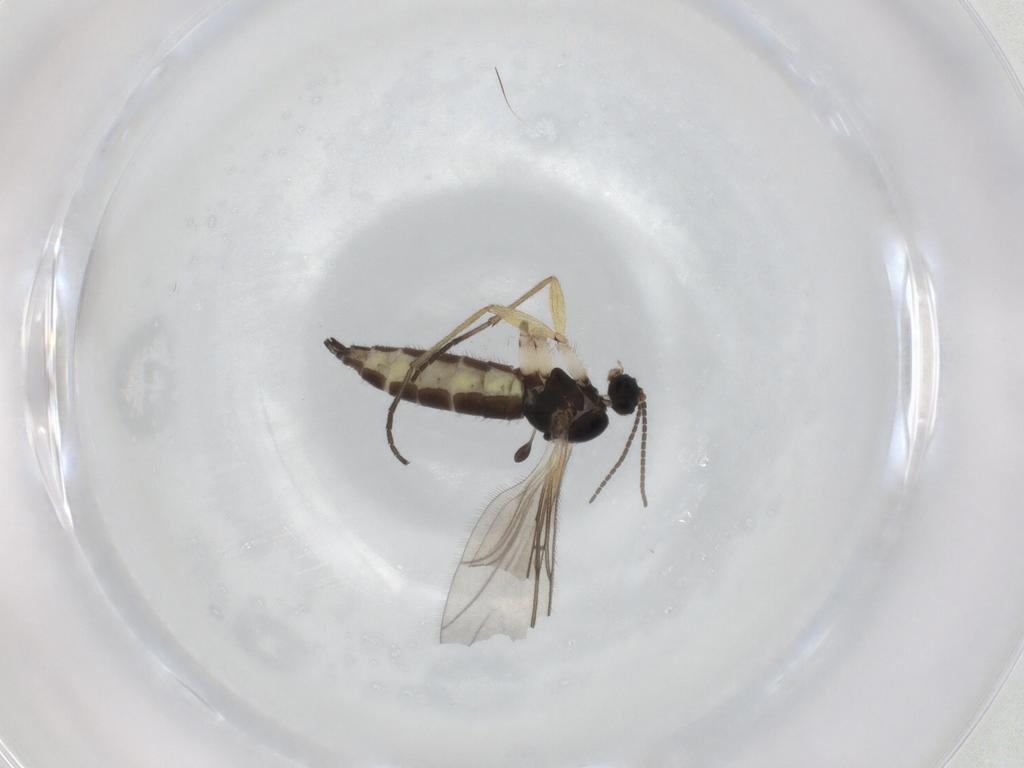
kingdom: Animalia
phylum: Arthropoda
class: Insecta
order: Diptera
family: Sciaridae
